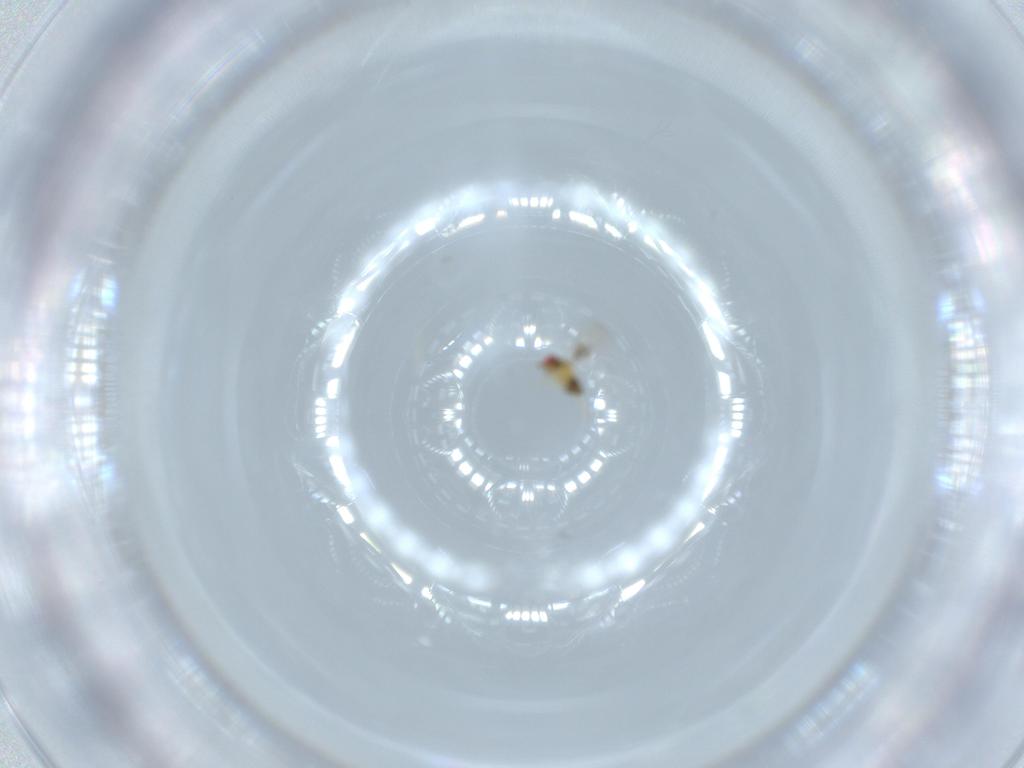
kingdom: Animalia
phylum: Arthropoda
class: Insecta
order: Hymenoptera
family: Trichogrammatidae
